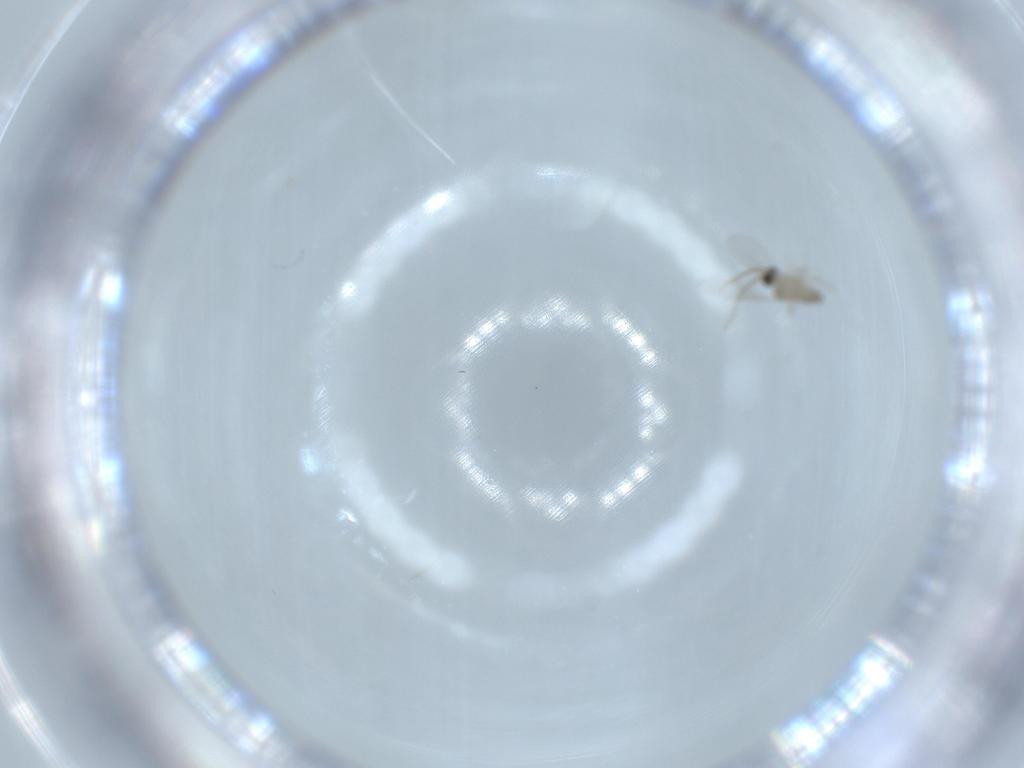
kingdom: Animalia
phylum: Arthropoda
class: Insecta
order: Diptera
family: Cecidomyiidae
